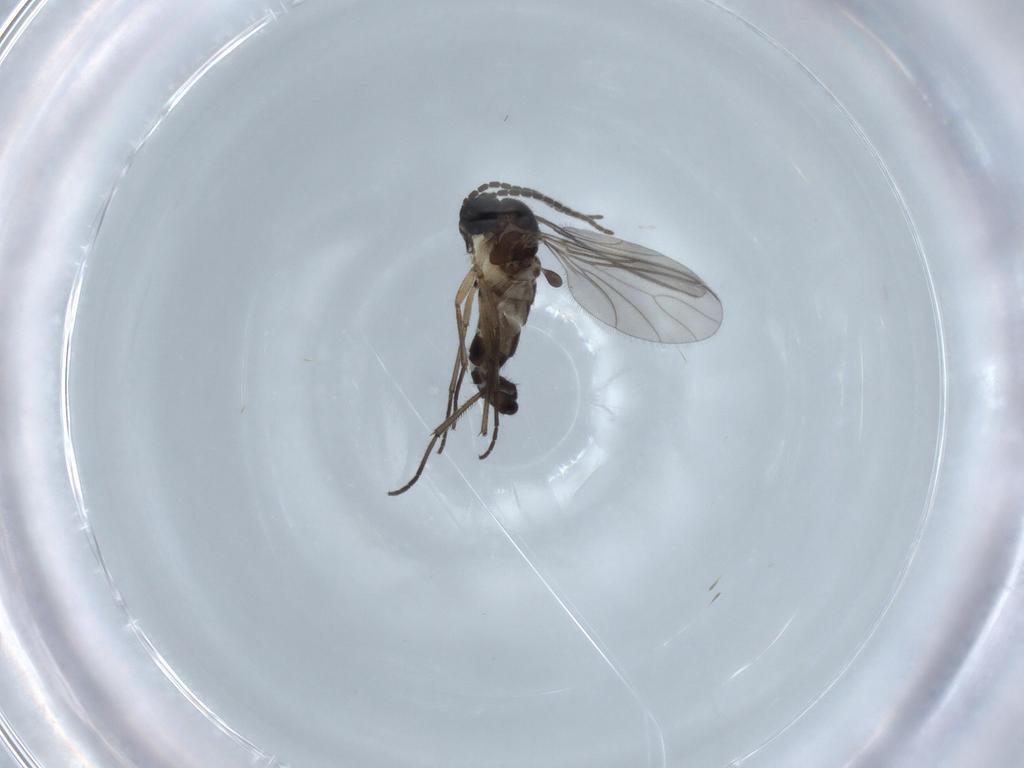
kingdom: Animalia
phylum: Arthropoda
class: Insecta
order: Diptera
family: Sciaridae
